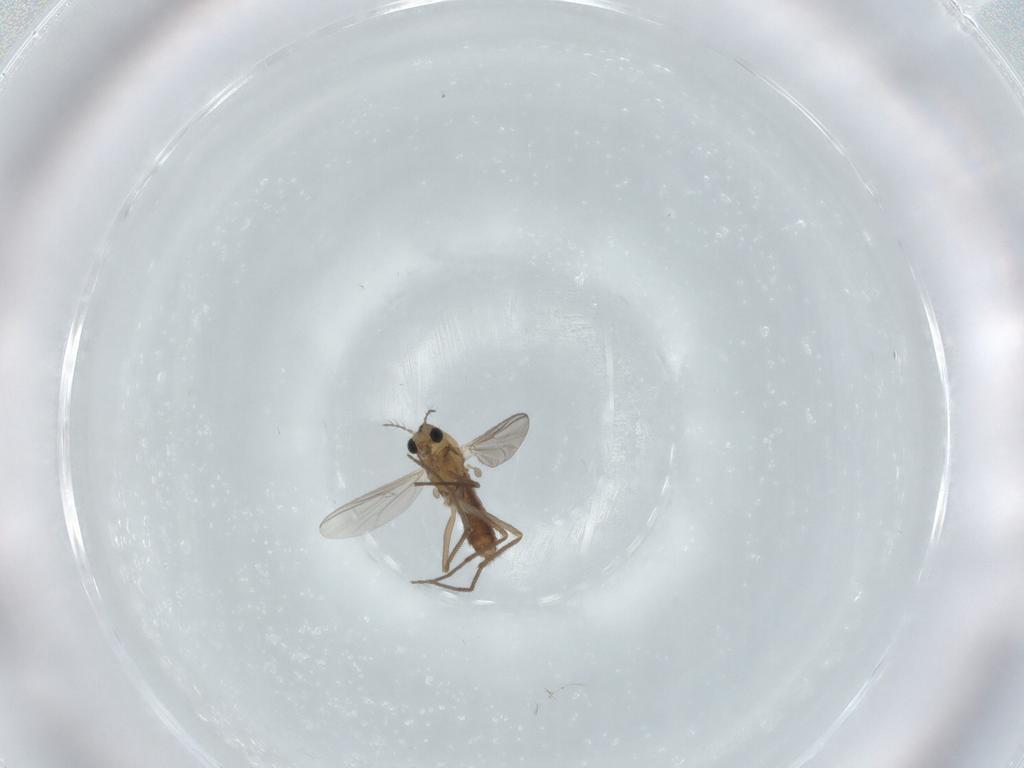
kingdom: Animalia
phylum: Arthropoda
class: Insecta
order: Diptera
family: Chironomidae
